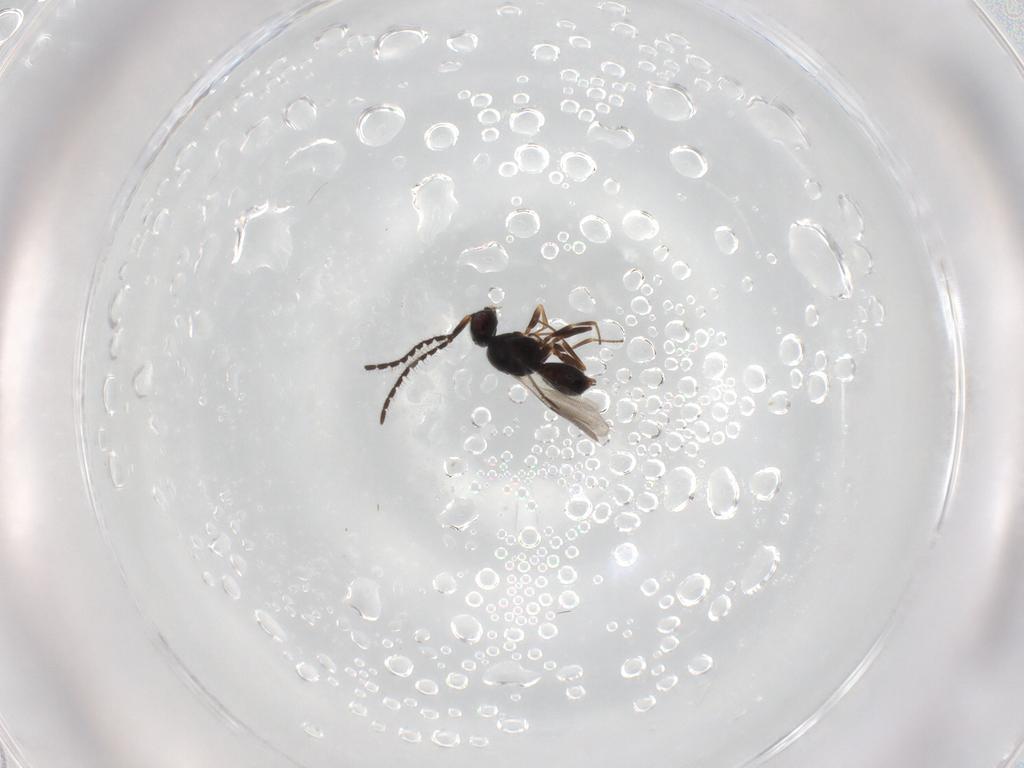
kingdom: Animalia
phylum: Arthropoda
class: Insecta
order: Hymenoptera
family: Megaspilidae
